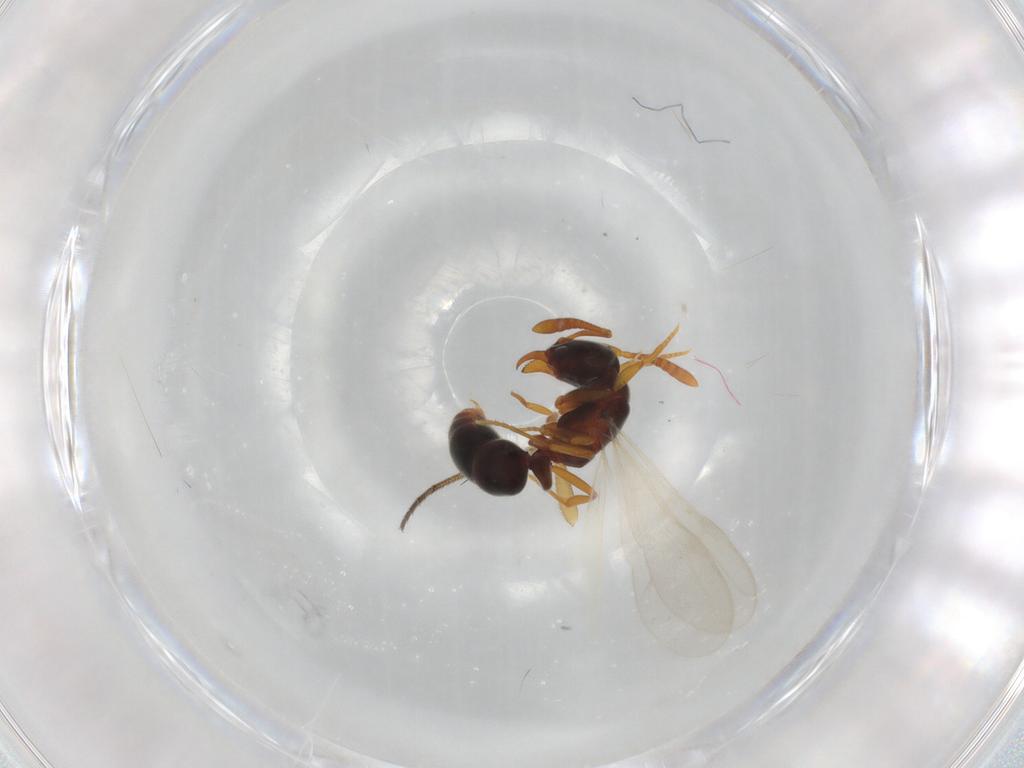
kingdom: Animalia
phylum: Arthropoda
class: Insecta
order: Hymenoptera
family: Formicidae
